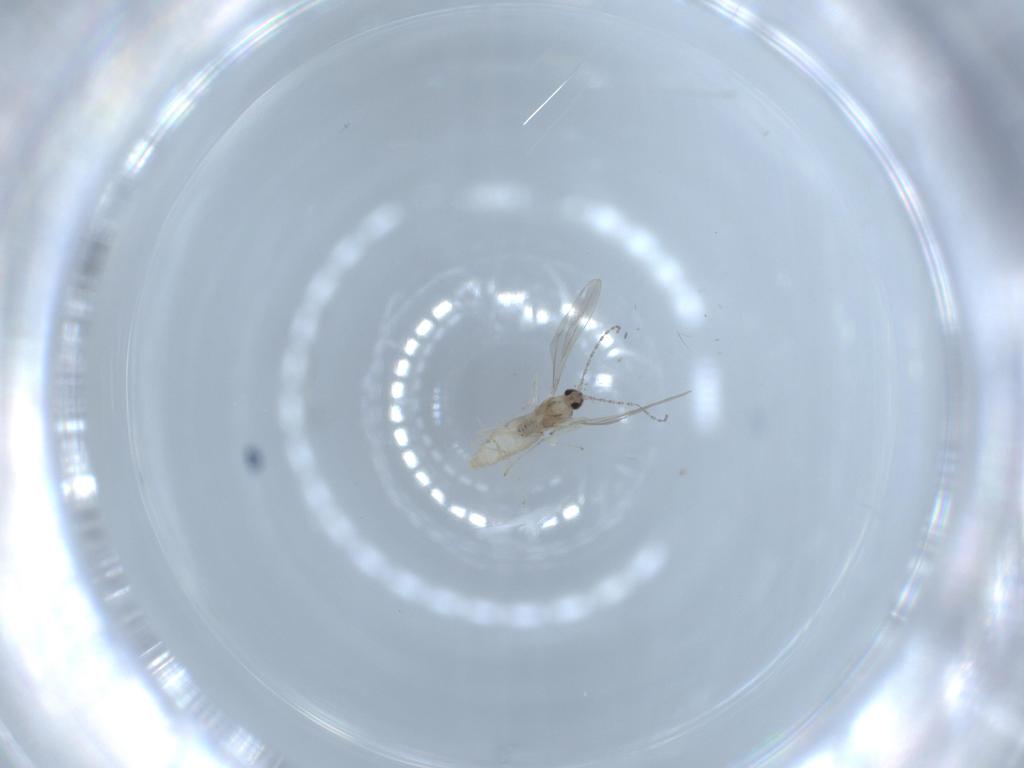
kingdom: Animalia
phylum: Arthropoda
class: Insecta
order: Diptera
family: Cecidomyiidae
